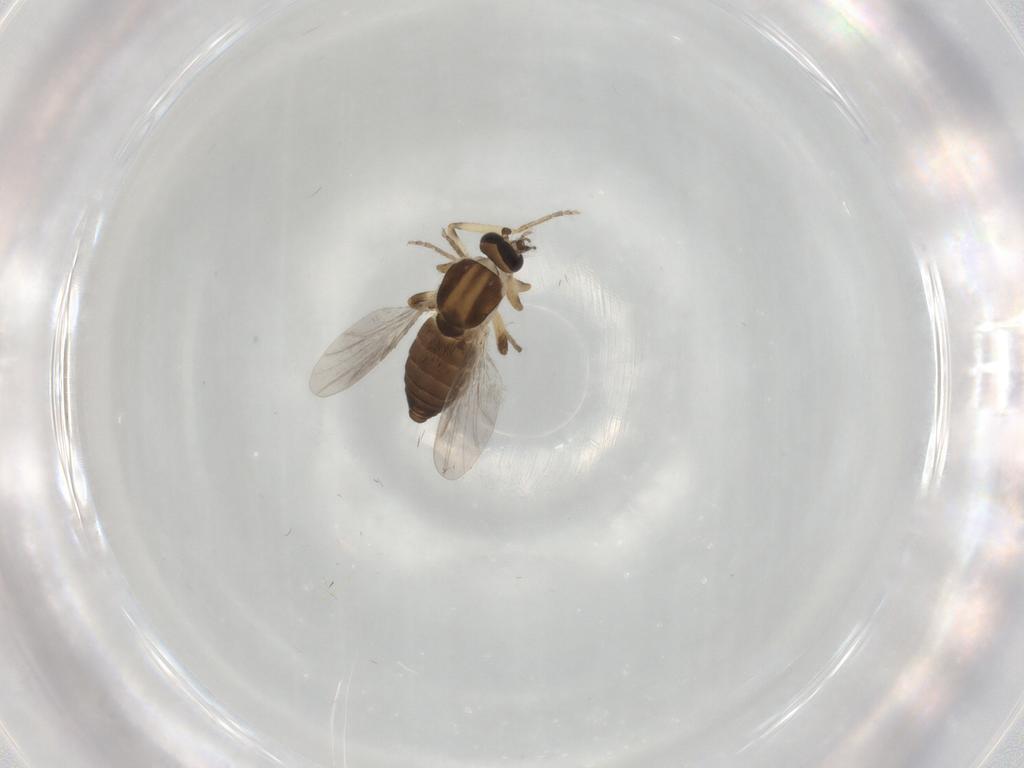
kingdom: Animalia
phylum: Arthropoda
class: Insecta
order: Diptera
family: Ceratopogonidae
